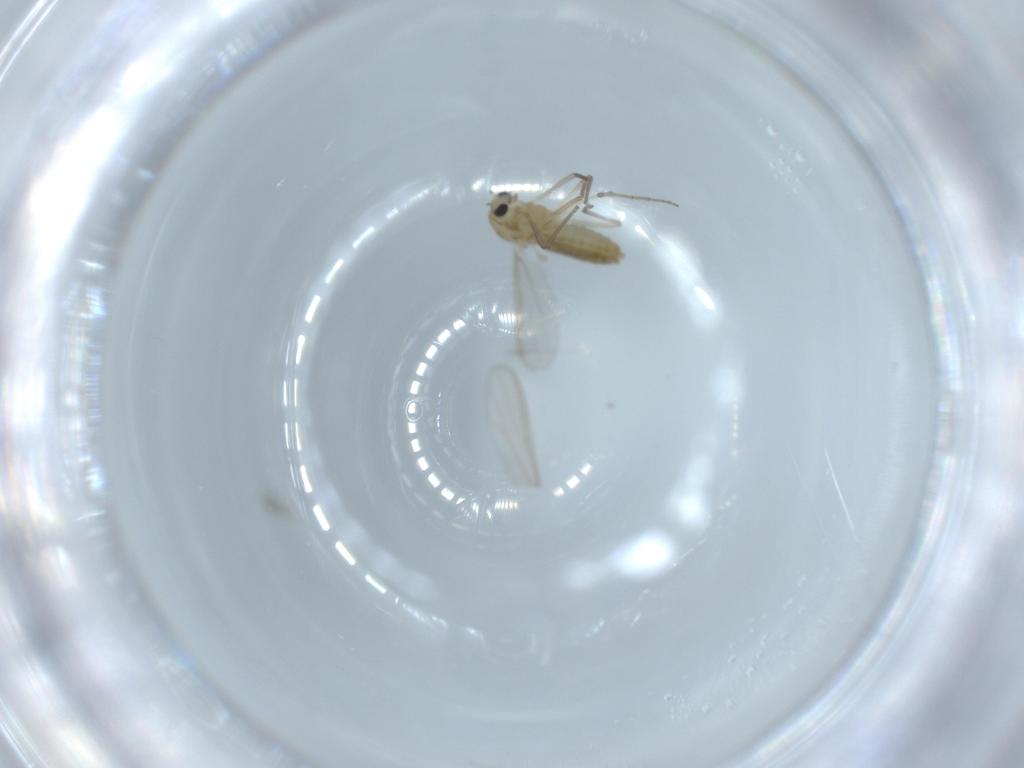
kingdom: Animalia
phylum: Arthropoda
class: Insecta
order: Diptera
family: Chironomidae
